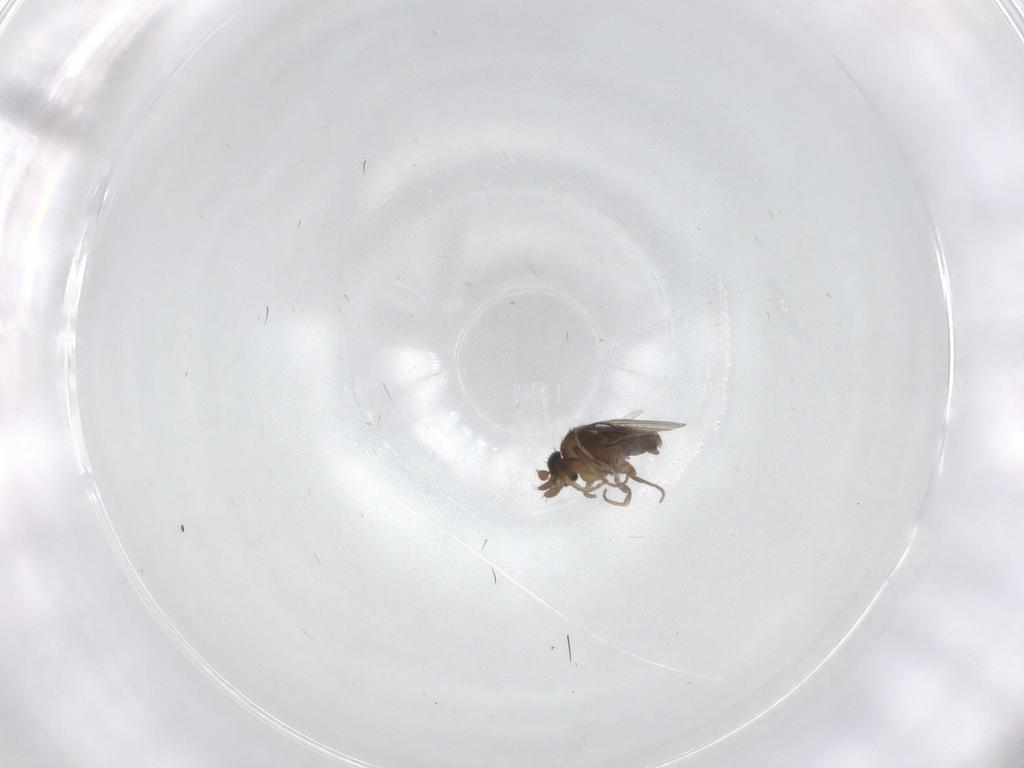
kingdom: Animalia
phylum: Arthropoda
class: Insecta
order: Diptera
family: Phoridae
